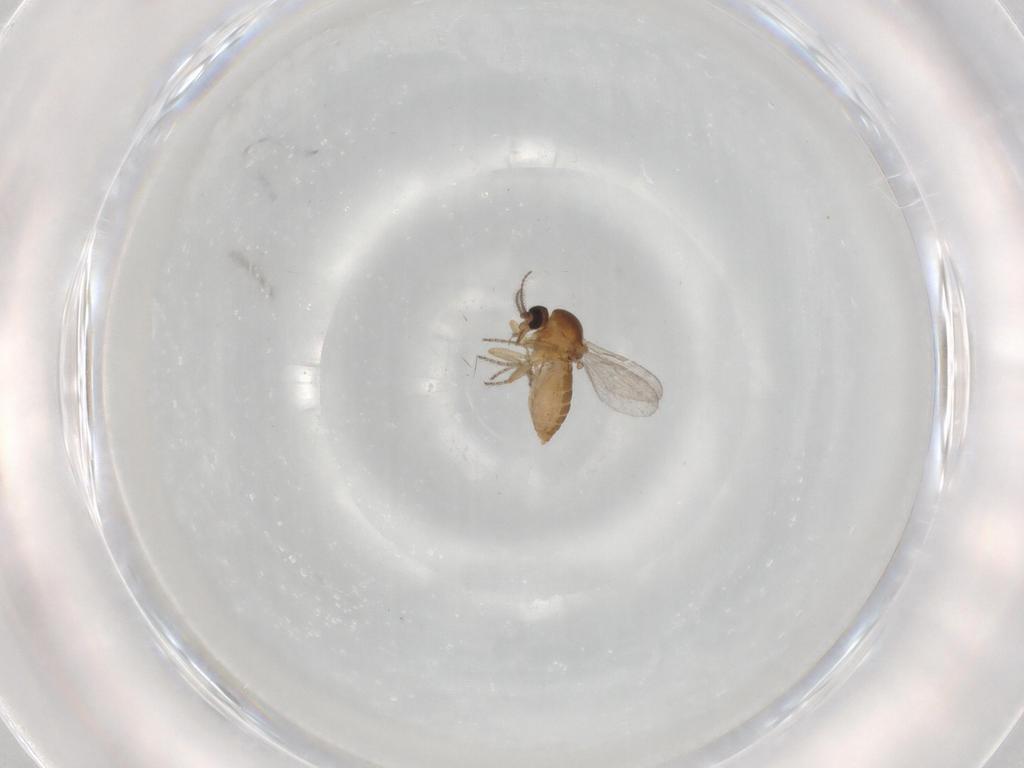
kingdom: Animalia
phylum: Arthropoda
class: Insecta
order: Diptera
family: Ceratopogonidae
